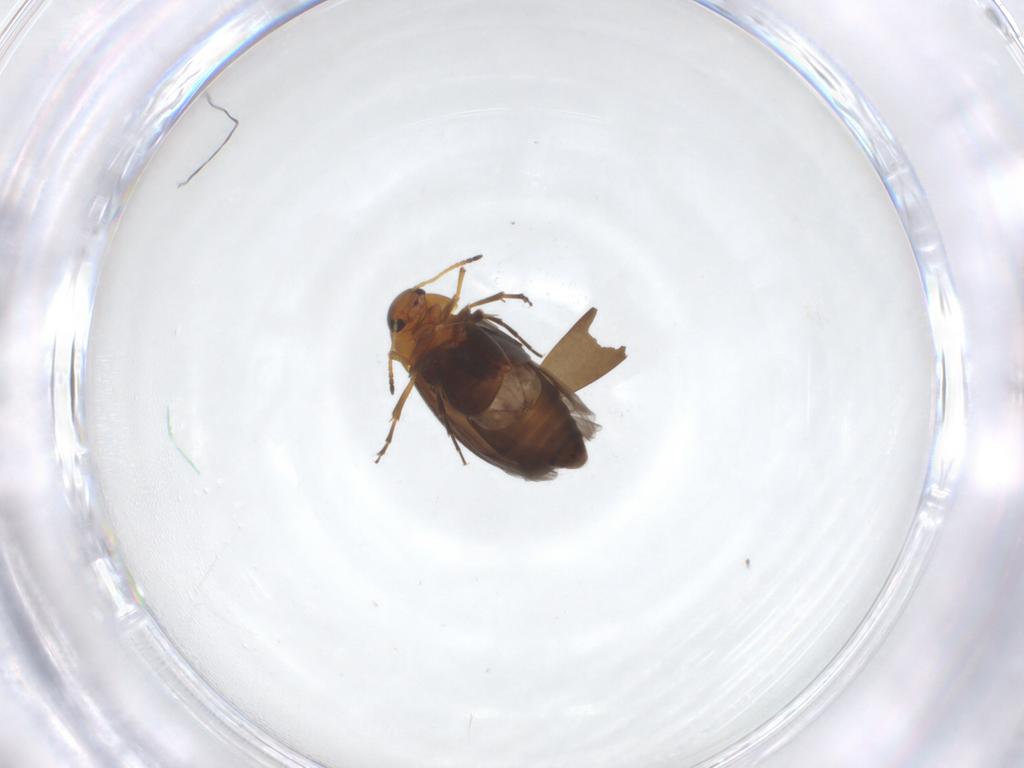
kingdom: Animalia
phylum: Arthropoda
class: Insecta
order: Coleoptera
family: Scraptiidae
